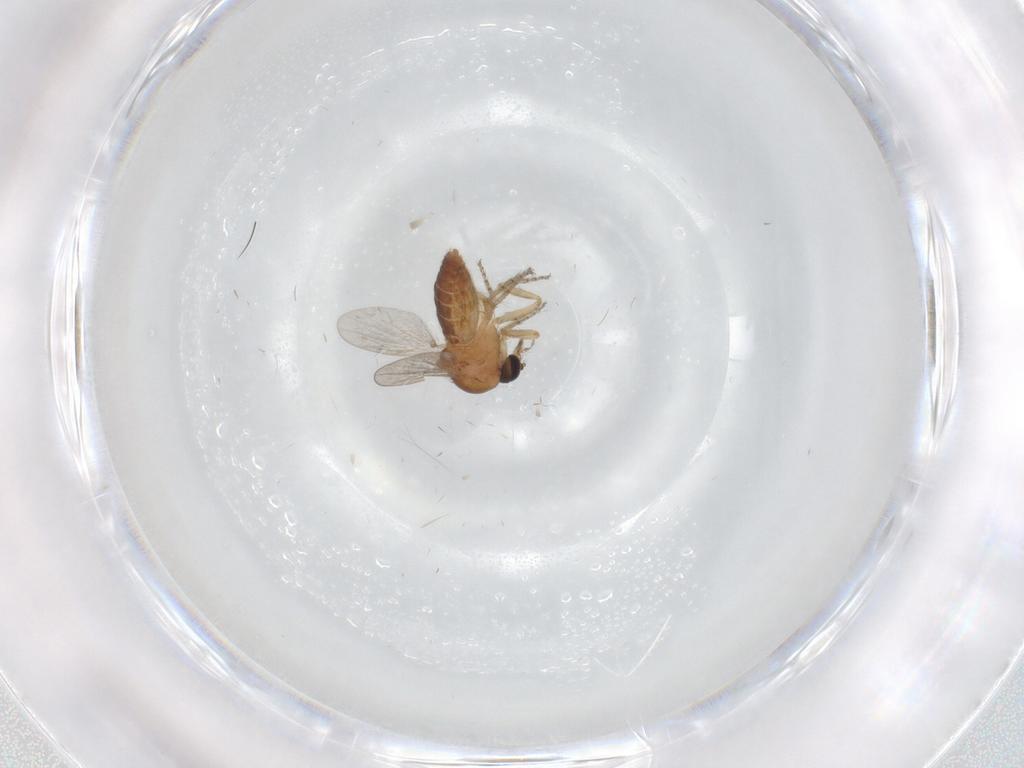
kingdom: Animalia
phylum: Arthropoda
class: Insecta
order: Diptera
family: Ceratopogonidae
